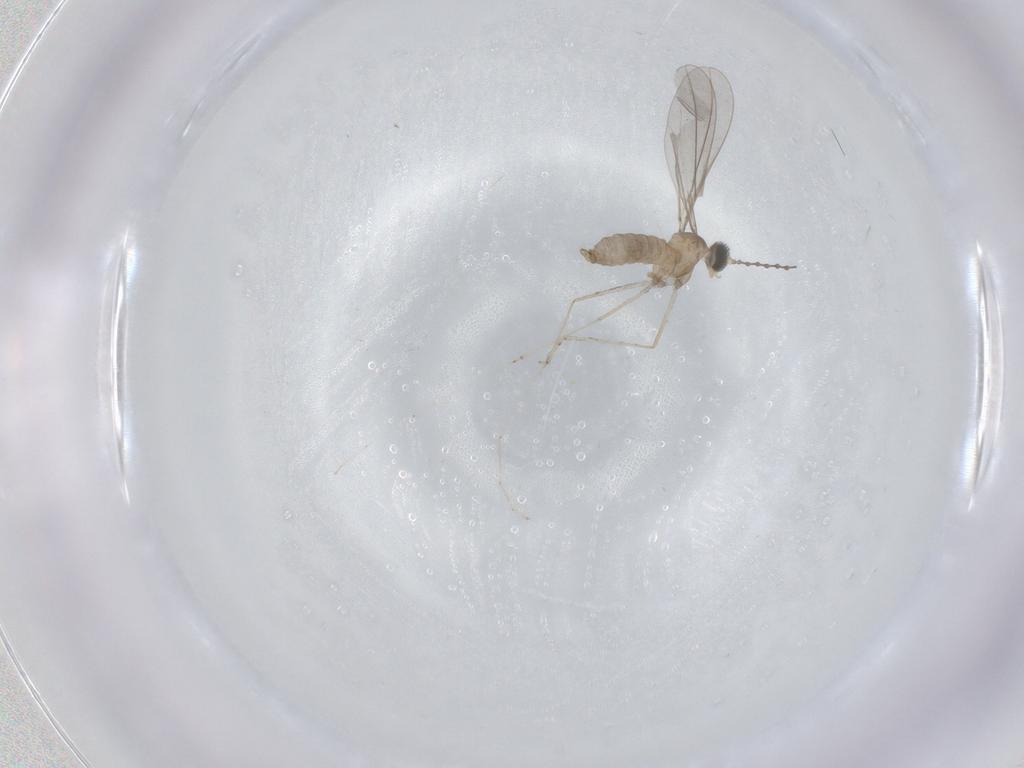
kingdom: Animalia
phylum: Arthropoda
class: Insecta
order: Diptera
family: Cecidomyiidae
